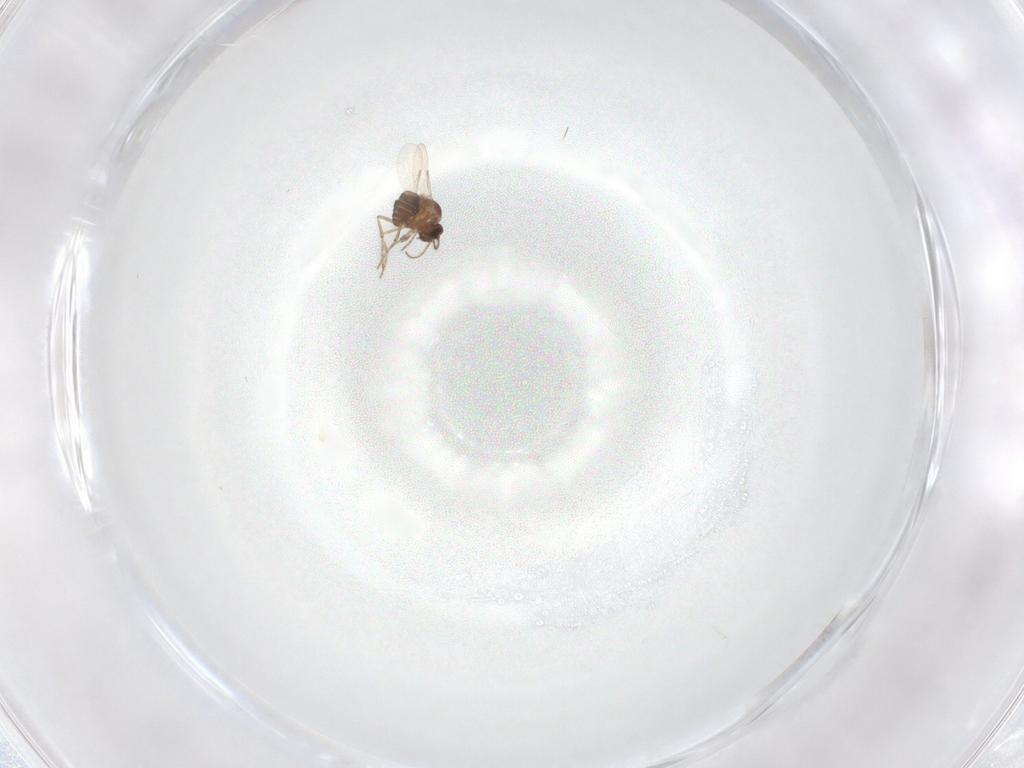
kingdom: Animalia
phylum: Arthropoda
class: Insecta
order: Diptera
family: Ceratopogonidae
